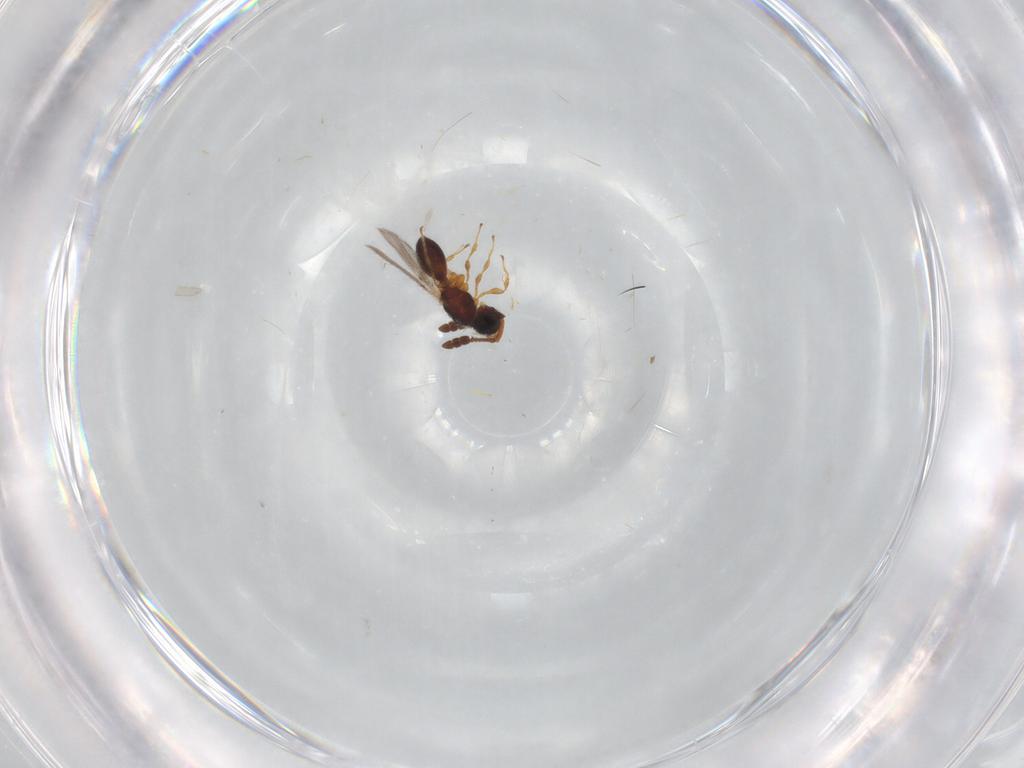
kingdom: Animalia
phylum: Arthropoda
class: Insecta
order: Hymenoptera
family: Diapriidae
